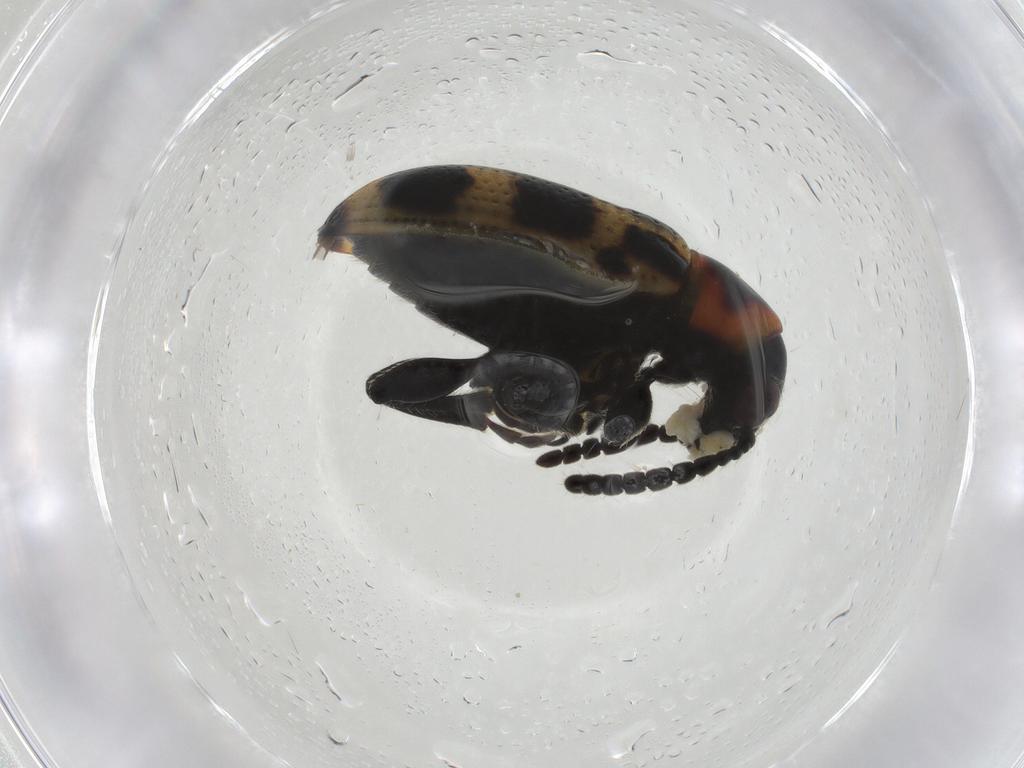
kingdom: Animalia
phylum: Arthropoda
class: Insecta
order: Coleoptera
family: Chrysomelidae
